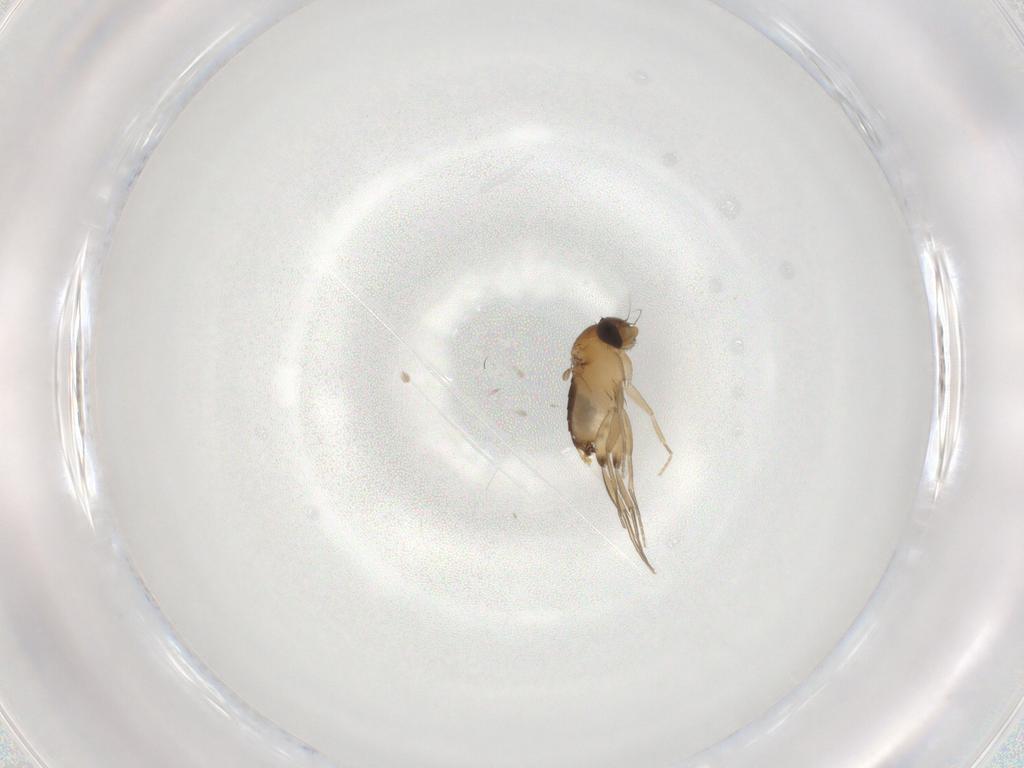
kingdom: Animalia
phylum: Arthropoda
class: Insecta
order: Diptera
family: Phoridae
